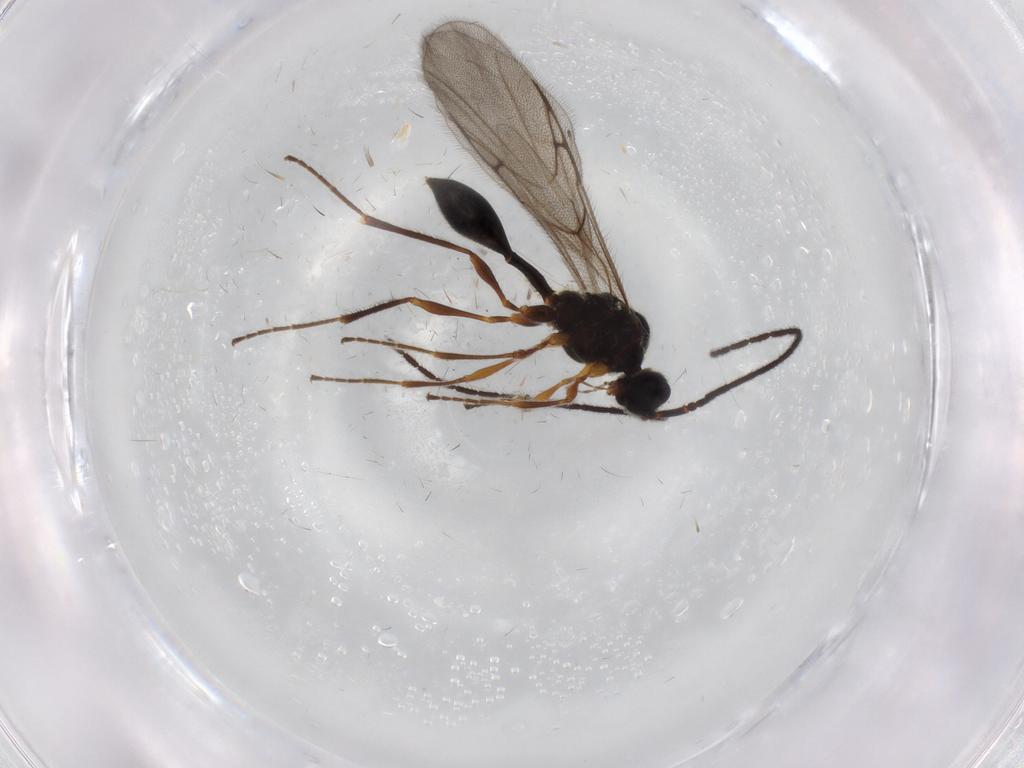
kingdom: Animalia
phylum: Arthropoda
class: Insecta
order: Hymenoptera
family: Diapriidae
